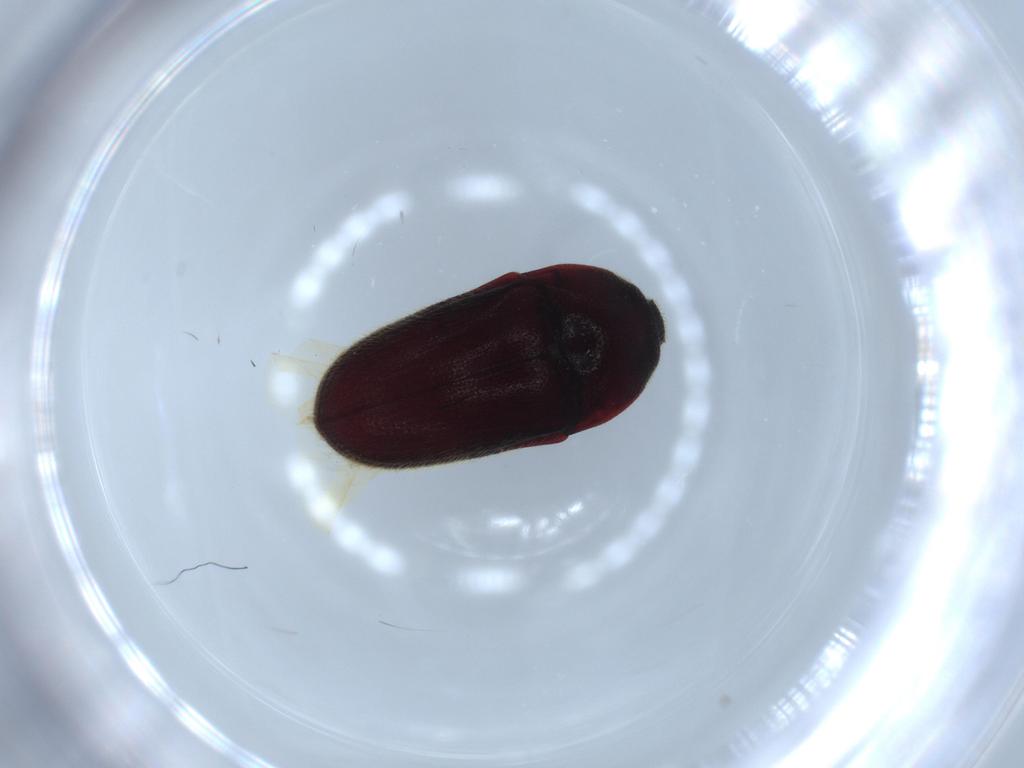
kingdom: Animalia
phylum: Arthropoda
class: Insecta
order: Coleoptera
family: Throscidae
